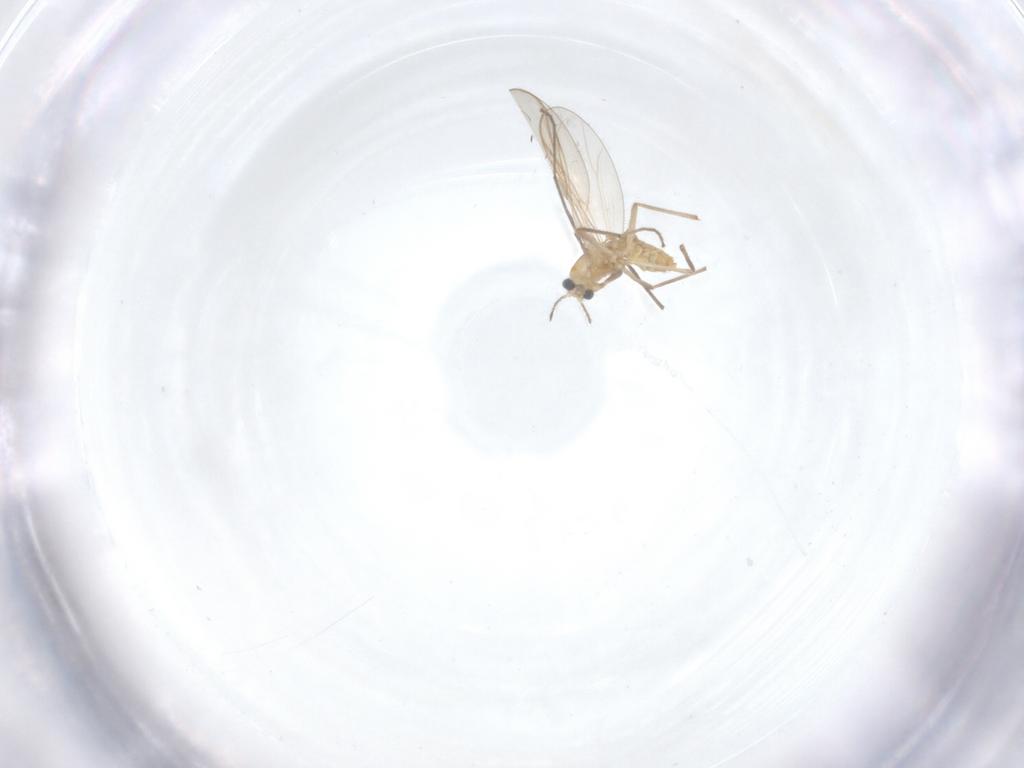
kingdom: Animalia
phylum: Arthropoda
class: Insecta
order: Diptera
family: Chironomidae
